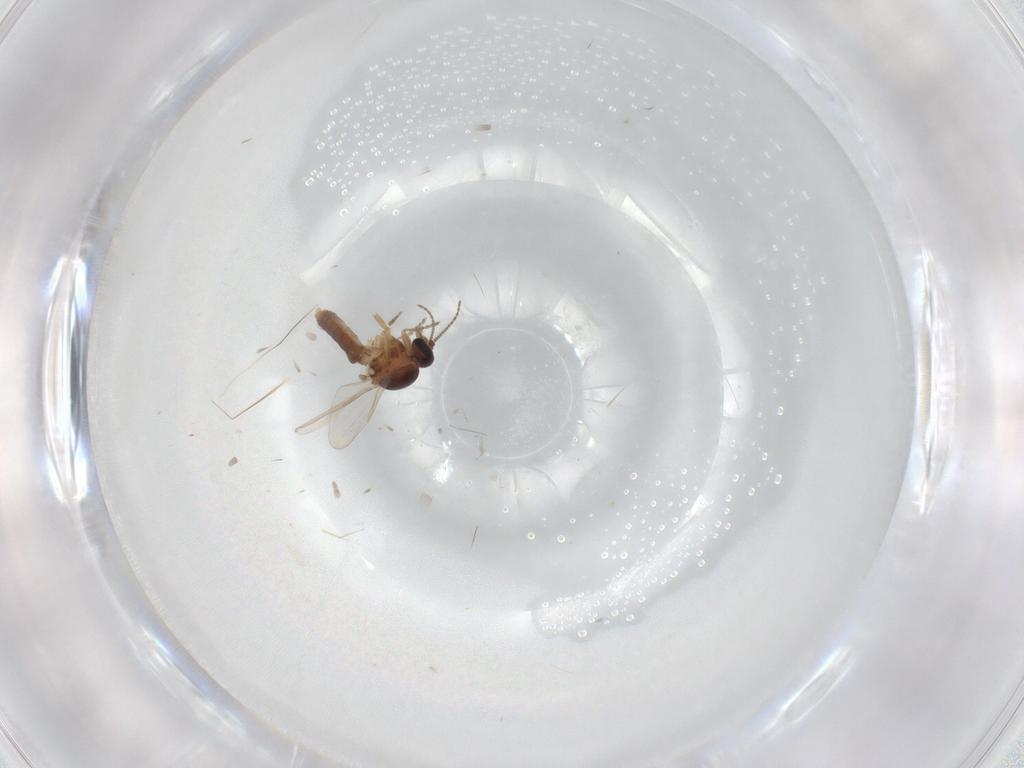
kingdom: Animalia
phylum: Arthropoda
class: Insecta
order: Diptera
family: Ceratopogonidae
